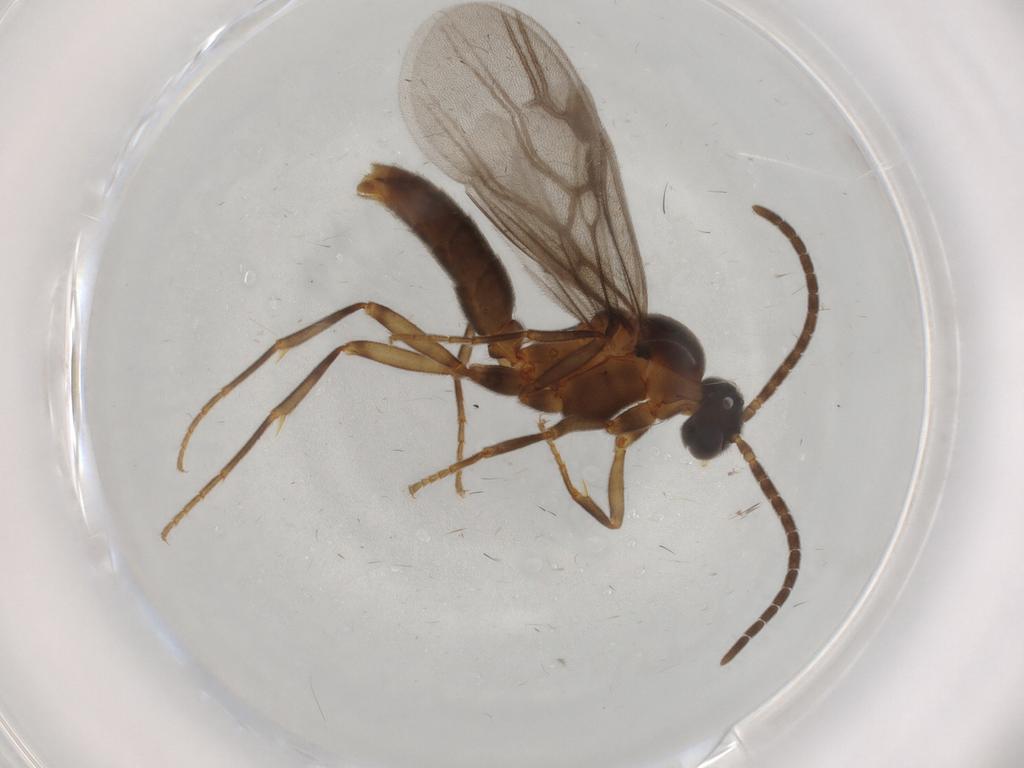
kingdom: Animalia
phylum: Arthropoda
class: Insecta
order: Hymenoptera
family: Formicidae
